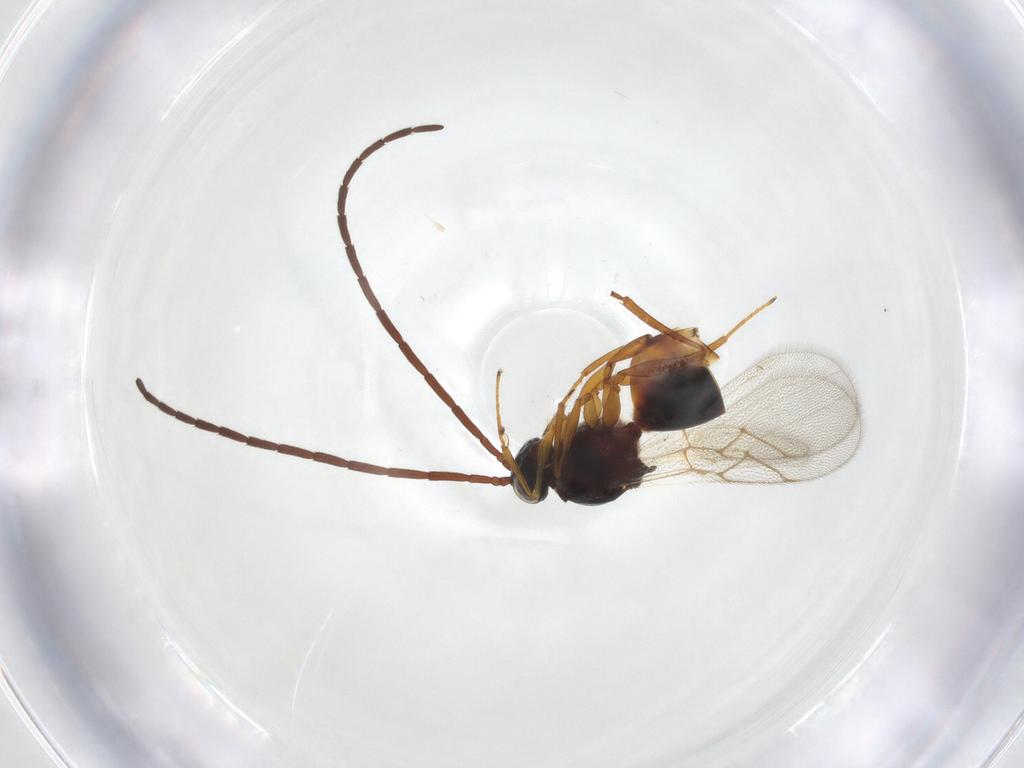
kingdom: Animalia
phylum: Arthropoda
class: Insecta
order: Hymenoptera
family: Figitidae
